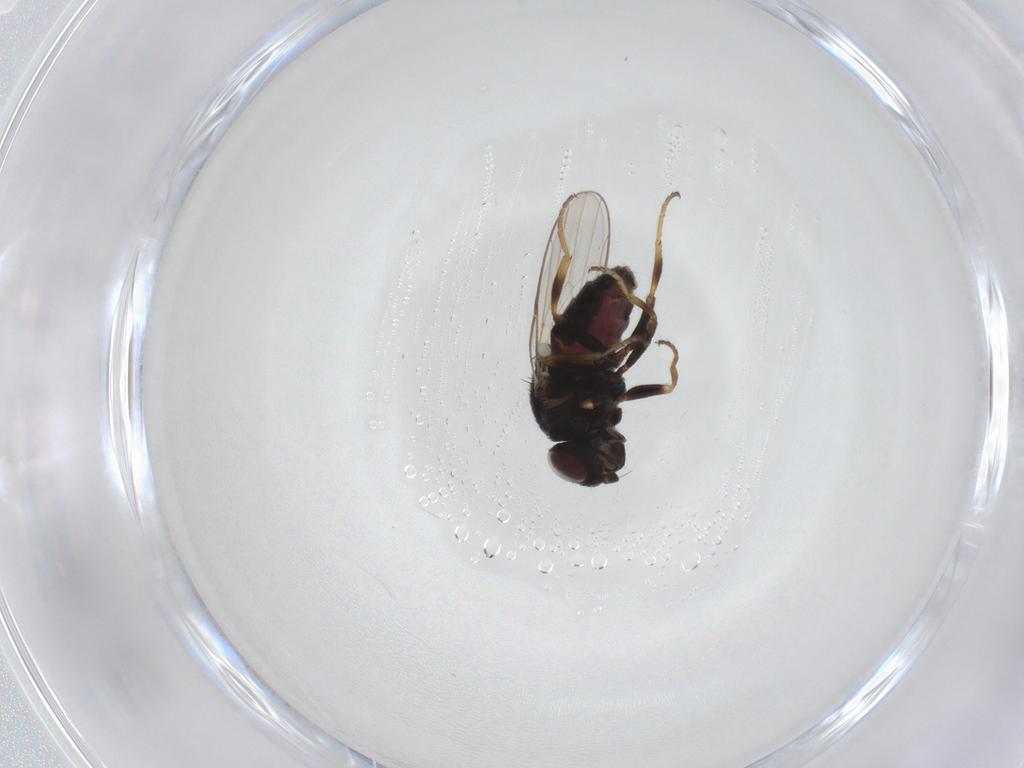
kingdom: Animalia
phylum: Arthropoda
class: Insecta
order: Diptera
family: Chloropidae
